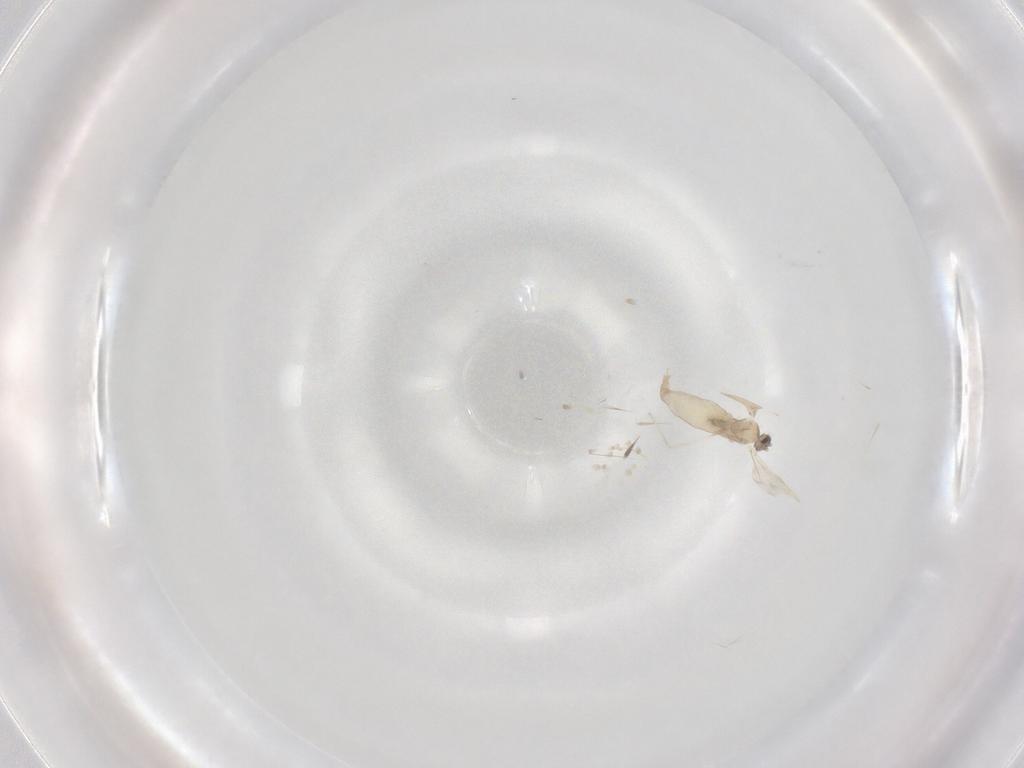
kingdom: Animalia
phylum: Arthropoda
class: Insecta
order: Diptera
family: Cecidomyiidae
